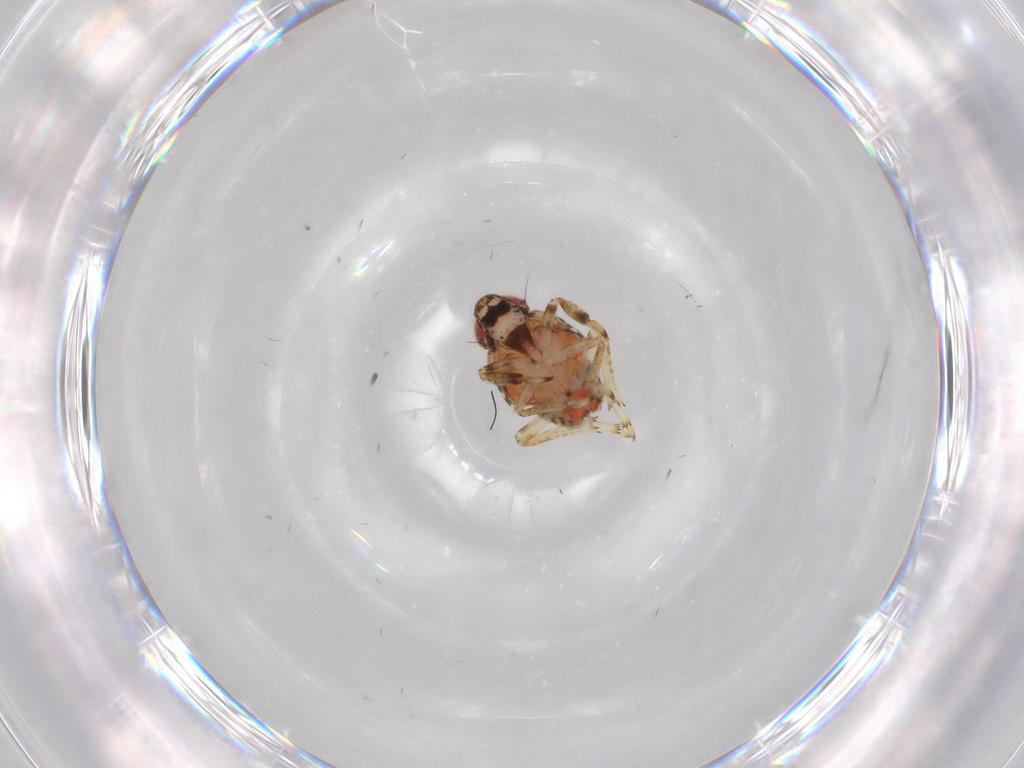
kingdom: Animalia
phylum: Arthropoda
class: Insecta
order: Hemiptera
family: Issidae
